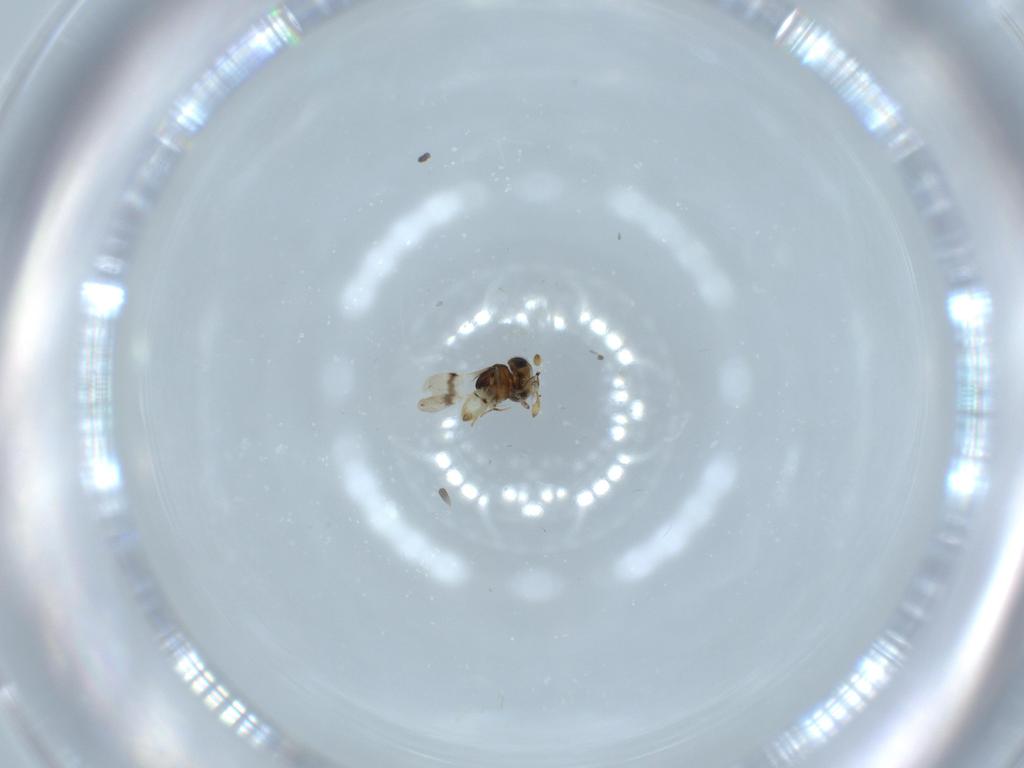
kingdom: Animalia
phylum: Arthropoda
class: Insecta
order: Hymenoptera
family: Scelionidae
